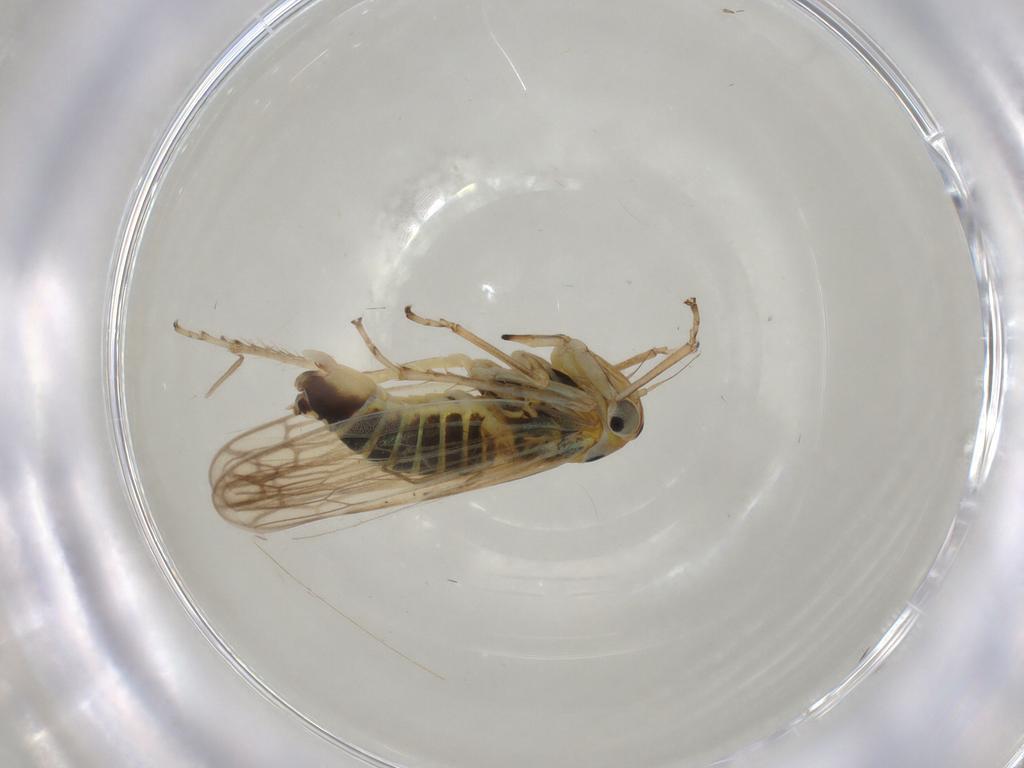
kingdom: Animalia
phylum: Arthropoda
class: Insecta
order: Hemiptera
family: Cicadellidae
